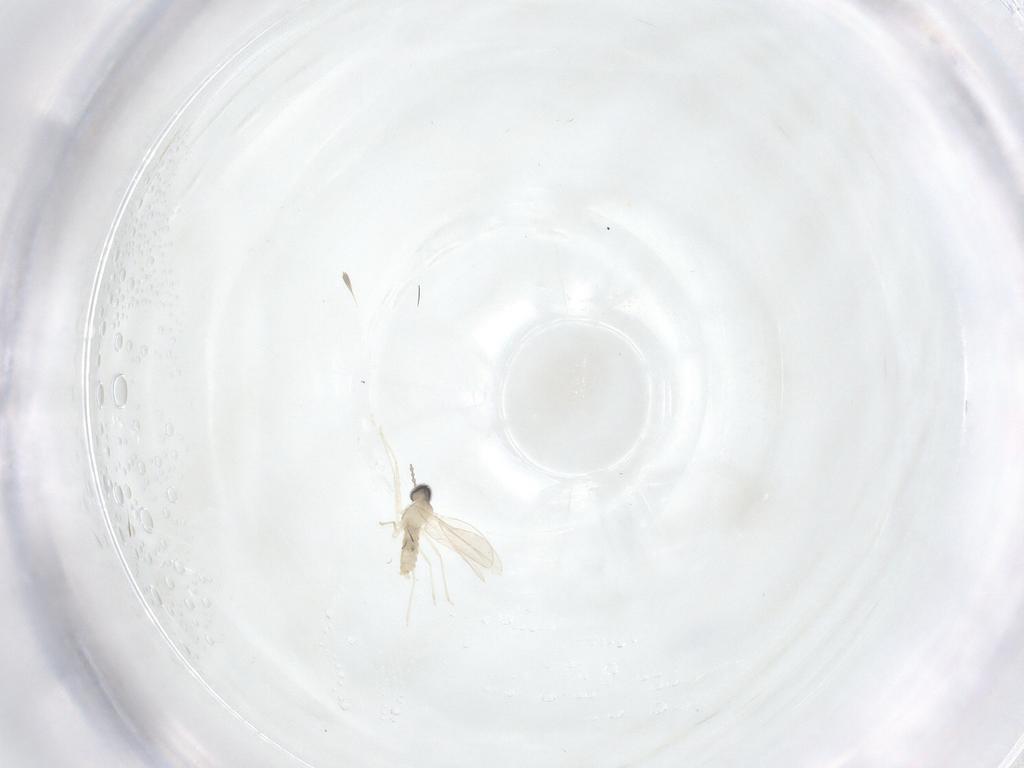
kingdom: Animalia
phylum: Arthropoda
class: Insecta
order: Diptera
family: Cecidomyiidae
